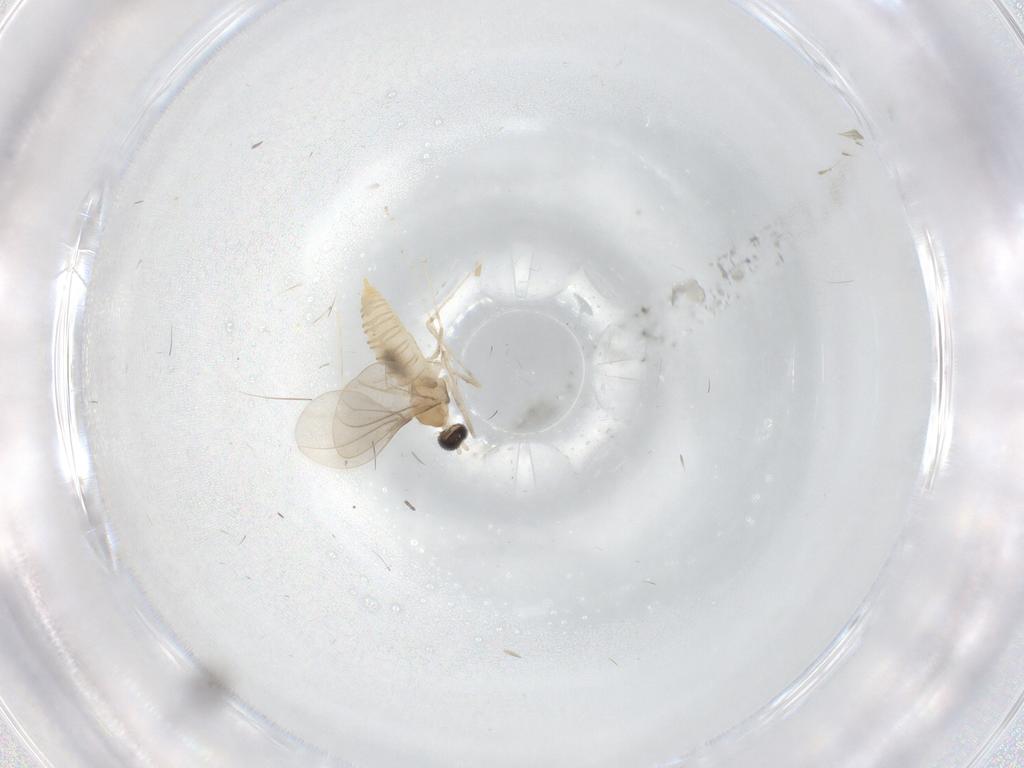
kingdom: Animalia
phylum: Arthropoda
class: Insecta
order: Diptera
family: Cecidomyiidae
